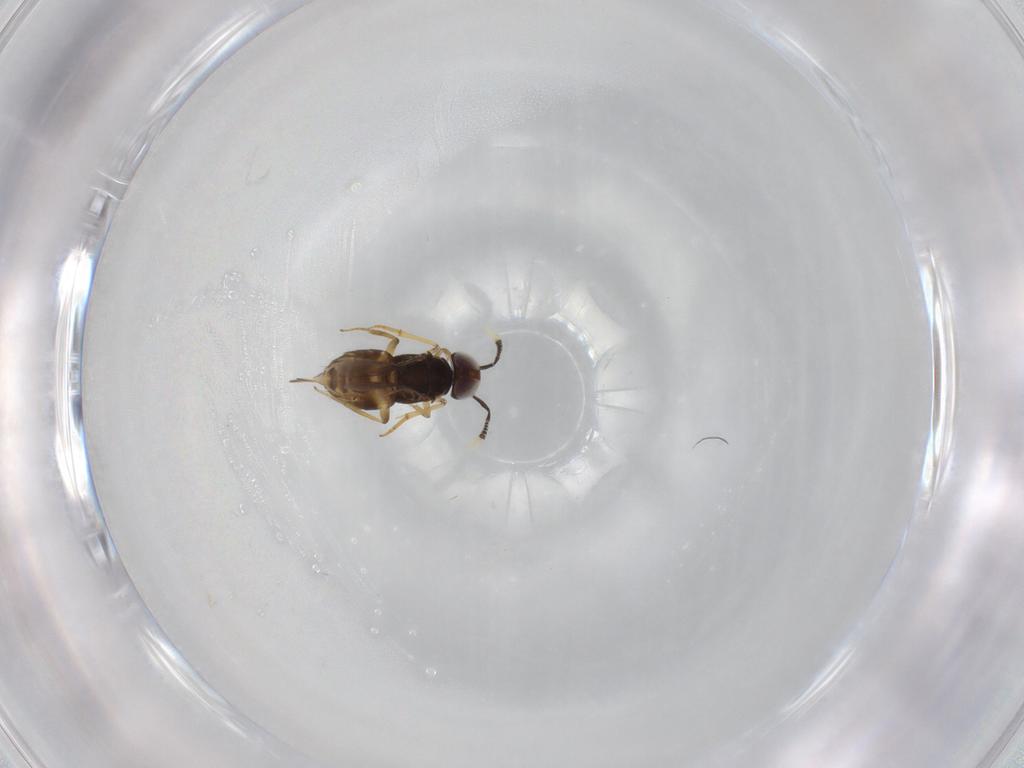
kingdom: Animalia
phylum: Arthropoda
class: Insecta
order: Hymenoptera
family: Encyrtidae
